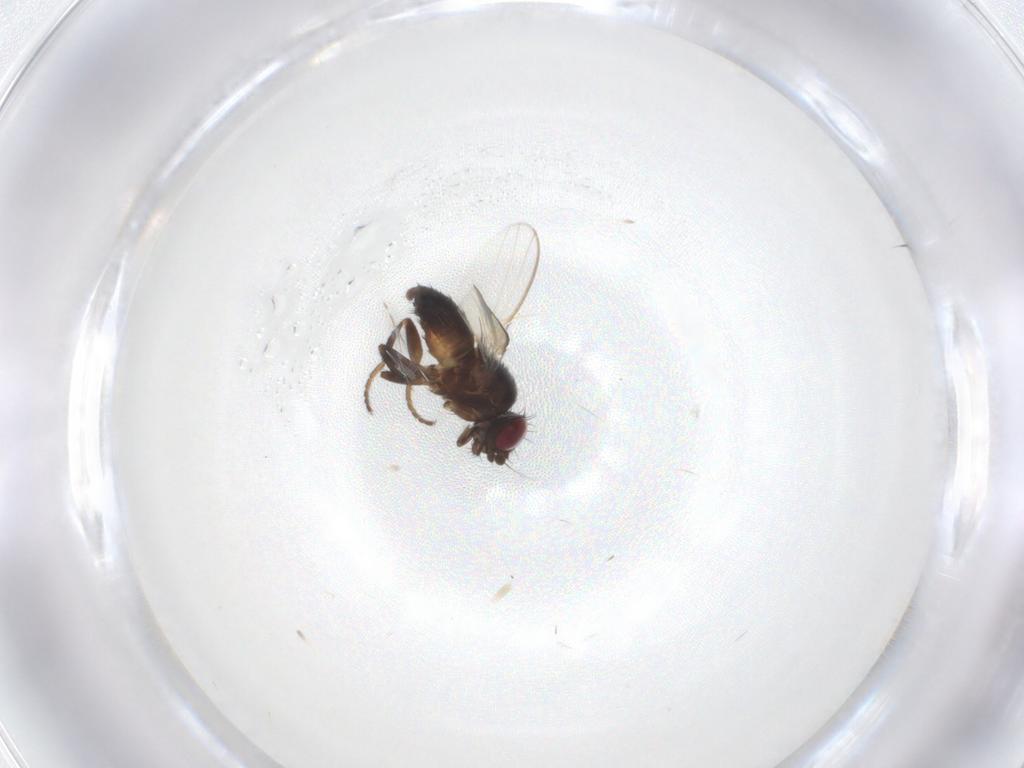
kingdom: Animalia
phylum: Arthropoda
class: Insecta
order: Diptera
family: Milichiidae
